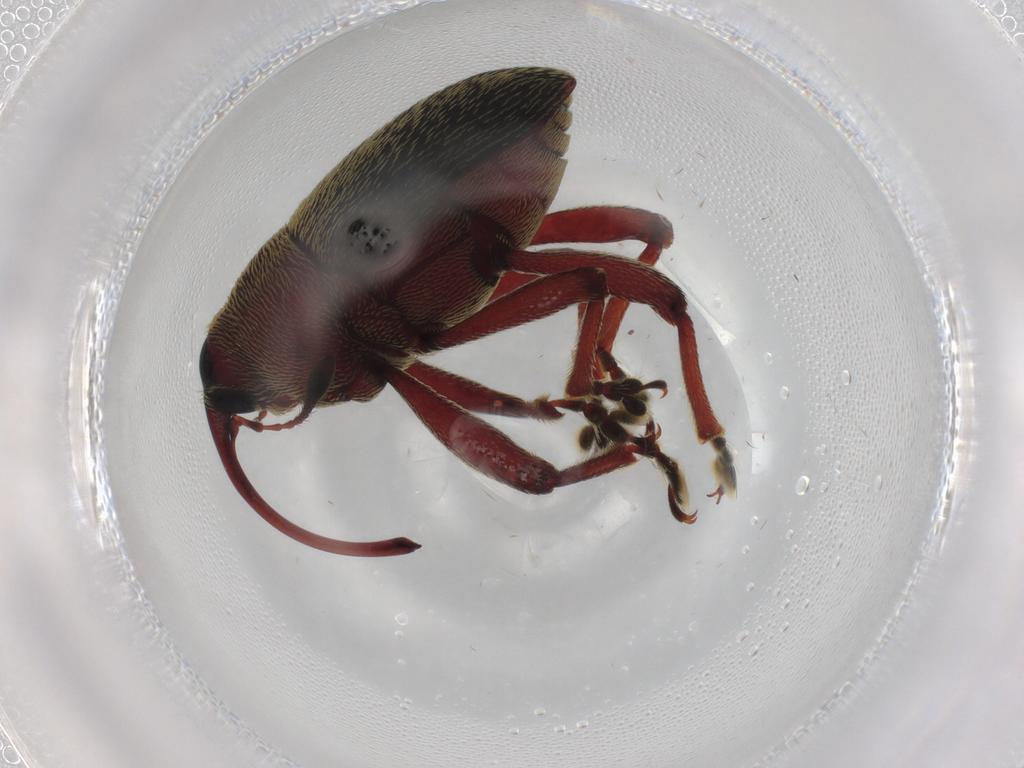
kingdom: Animalia
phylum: Arthropoda
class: Insecta
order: Coleoptera
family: Curculionidae
